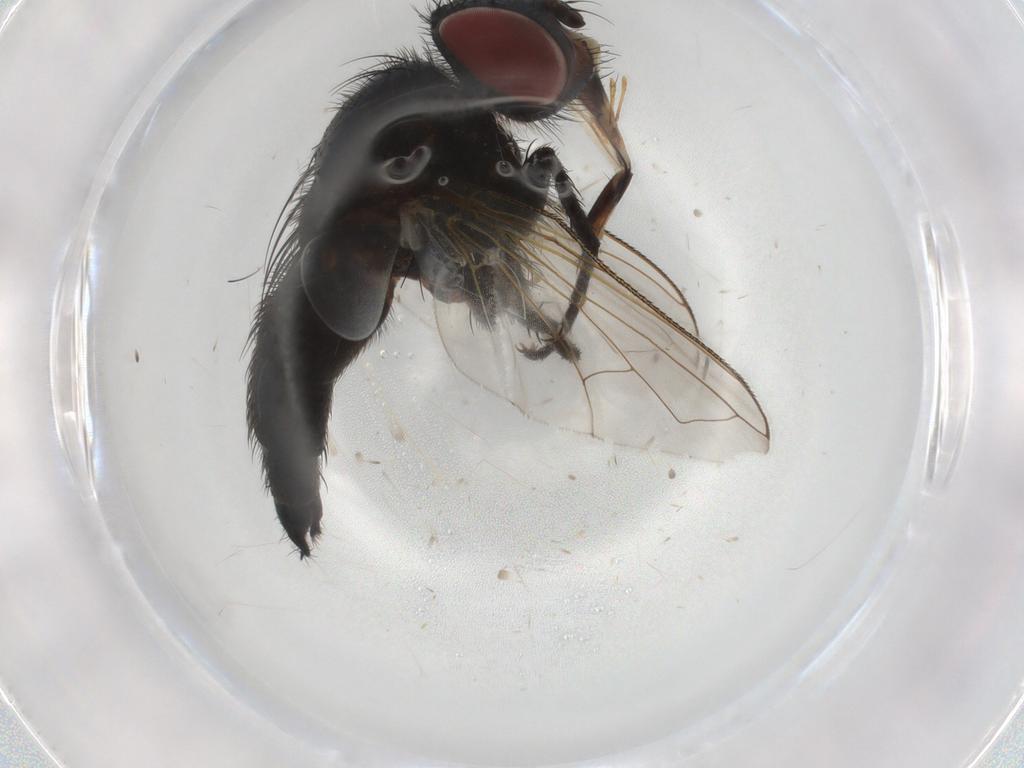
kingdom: Animalia
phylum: Arthropoda
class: Insecta
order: Diptera
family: Tachinidae
